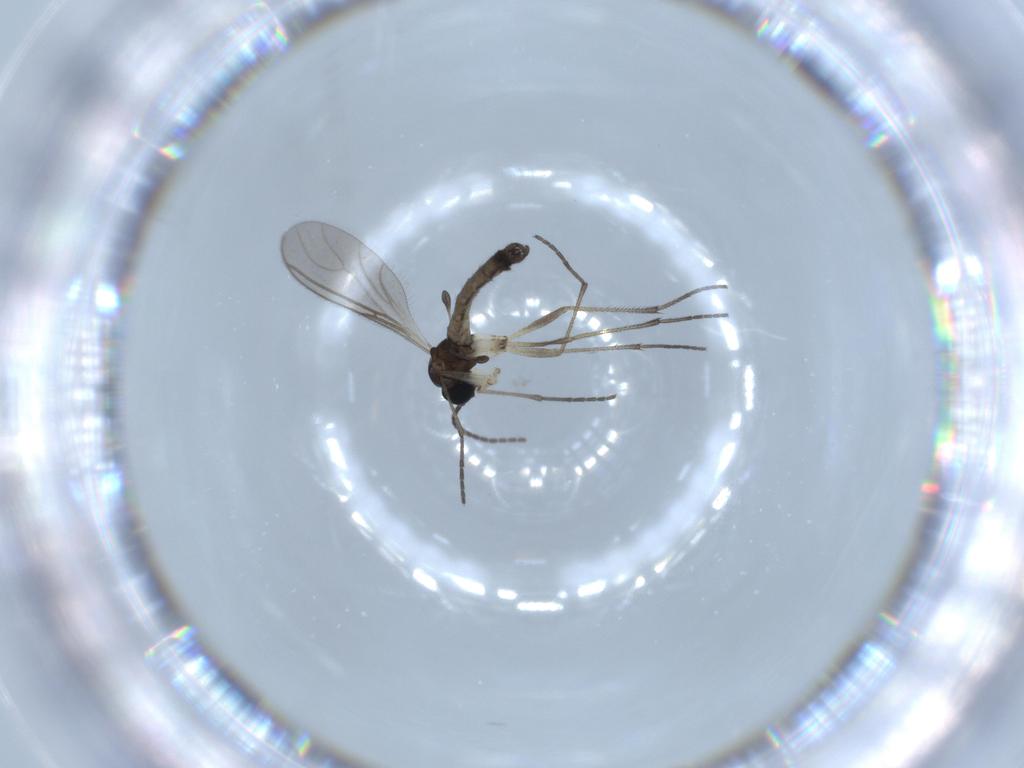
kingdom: Animalia
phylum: Arthropoda
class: Insecta
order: Diptera
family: Sciaridae
